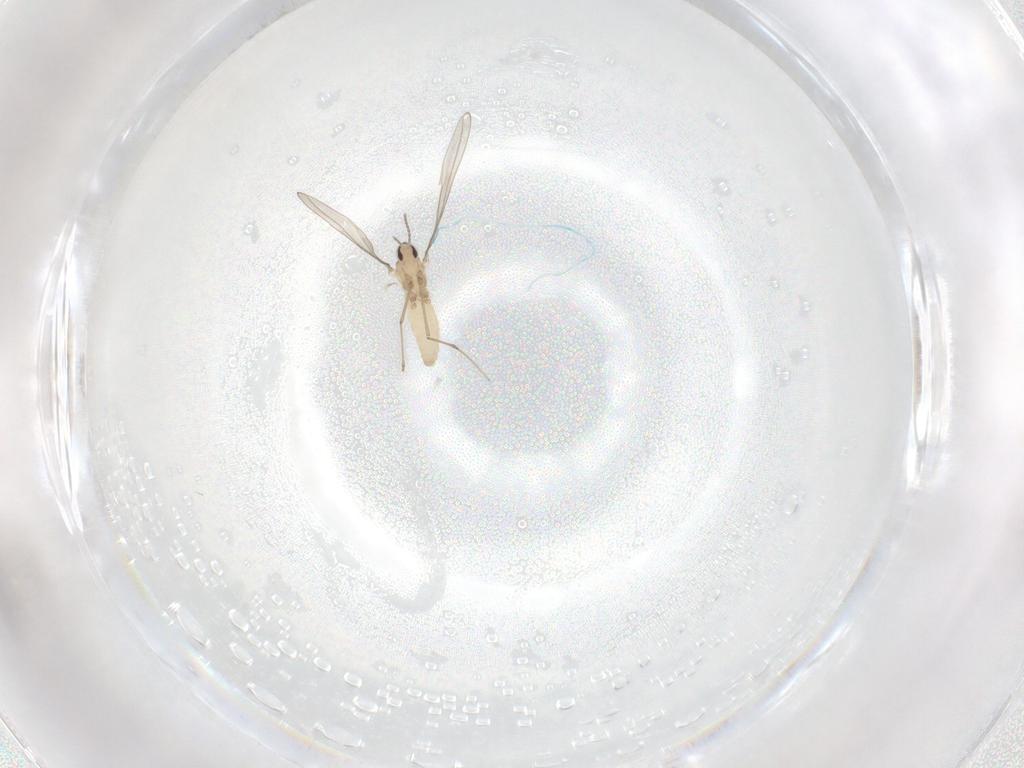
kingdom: Animalia
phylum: Arthropoda
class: Insecta
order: Diptera
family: Cecidomyiidae
